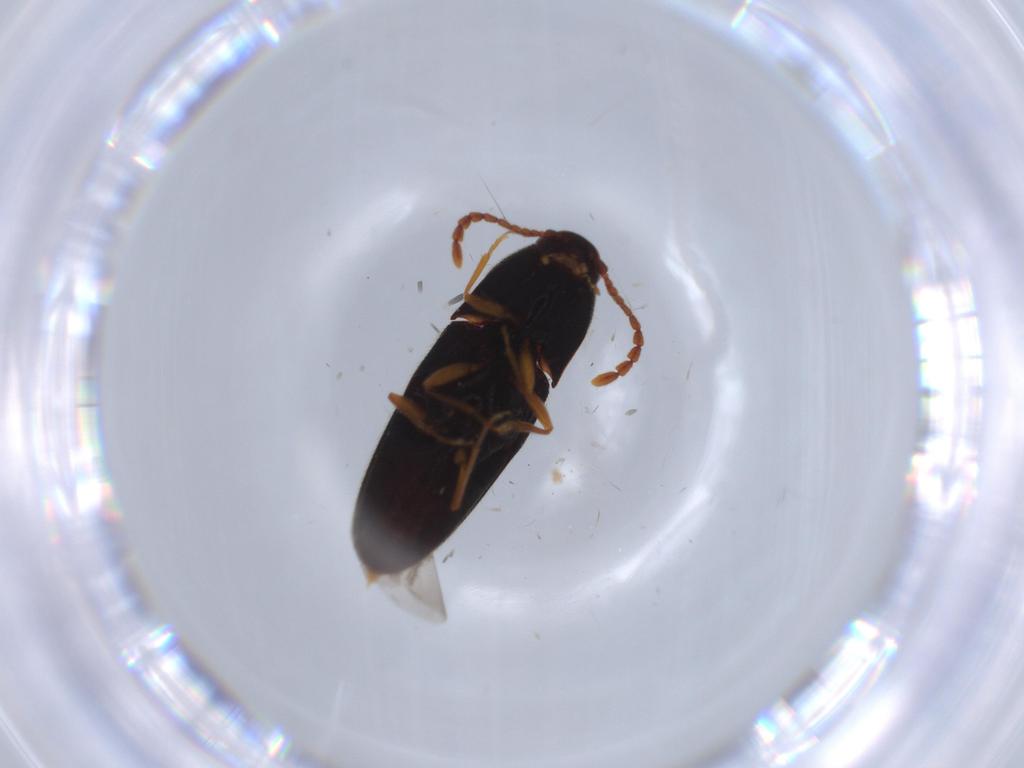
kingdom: Animalia
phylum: Arthropoda
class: Insecta
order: Coleoptera
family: Elateridae
